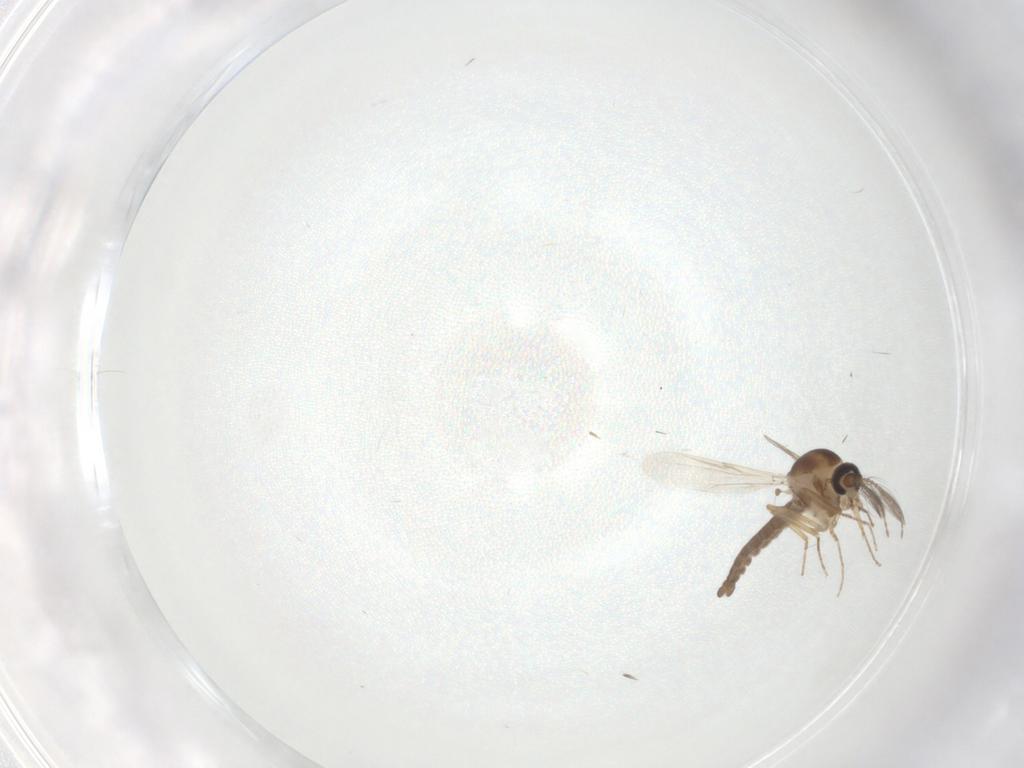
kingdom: Animalia
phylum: Arthropoda
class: Insecta
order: Diptera
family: Ceratopogonidae
